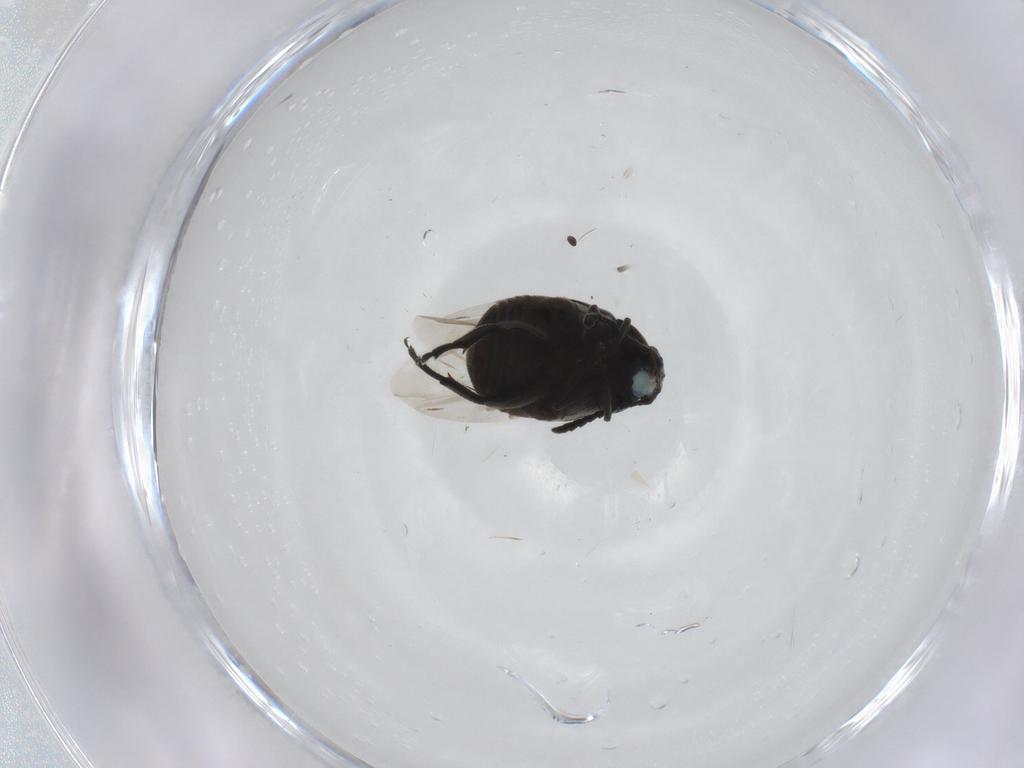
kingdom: Animalia
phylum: Arthropoda
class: Insecta
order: Coleoptera
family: Chrysomelidae
